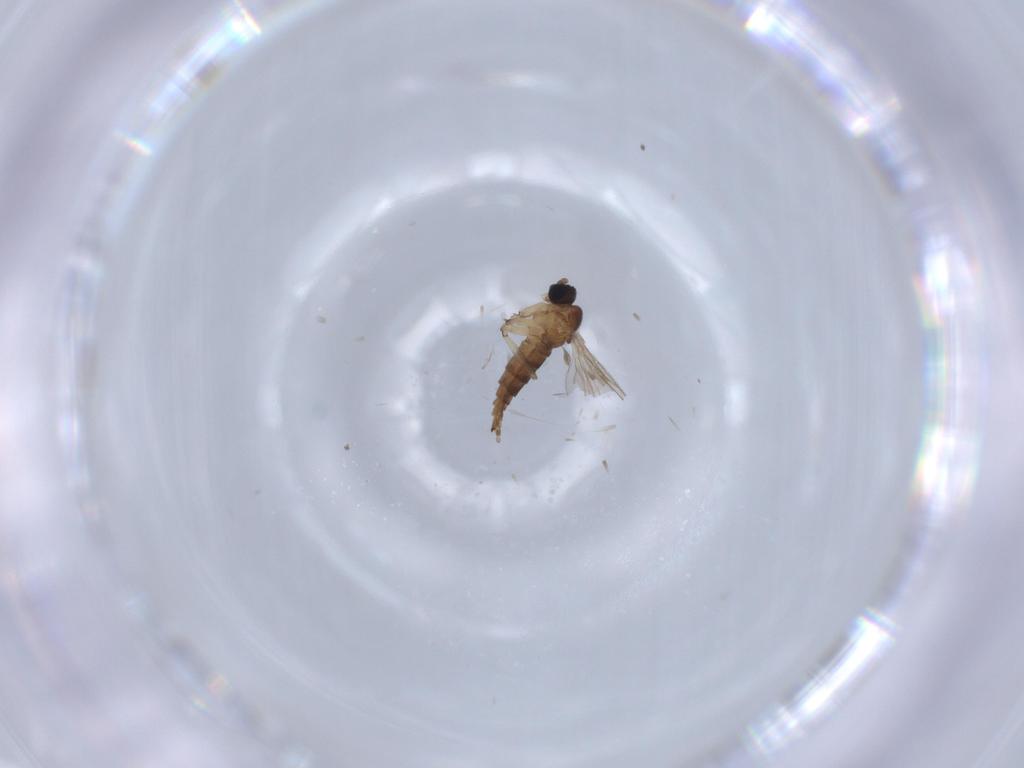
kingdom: Animalia
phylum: Arthropoda
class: Insecta
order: Diptera
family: Sciaridae
